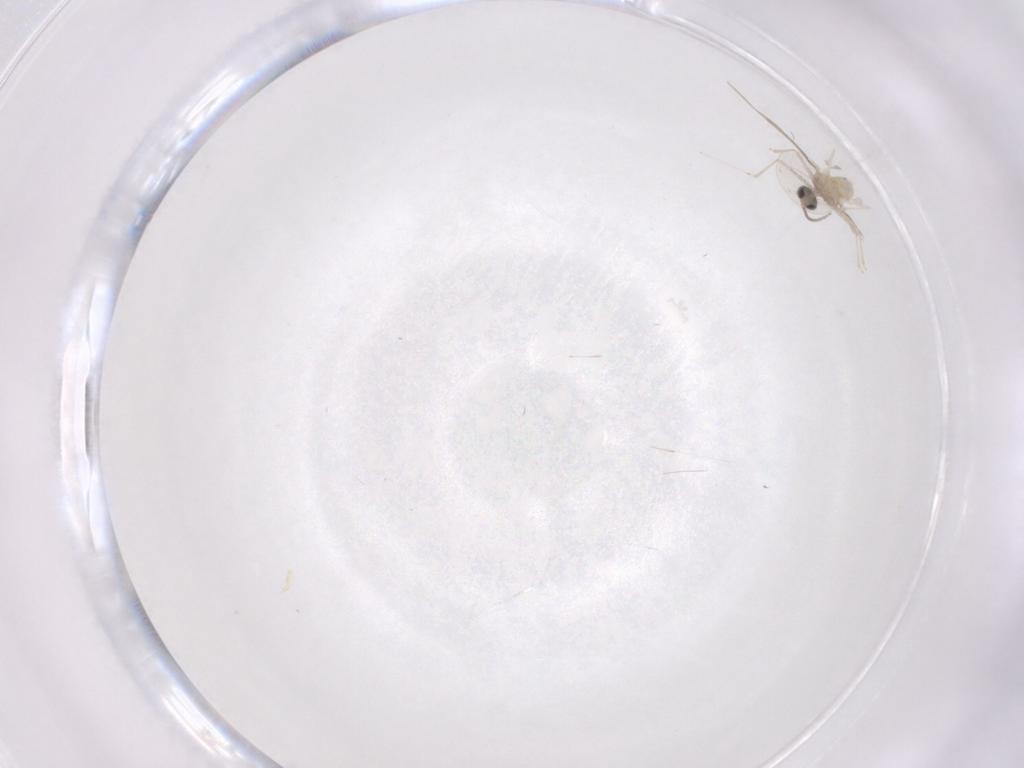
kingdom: Animalia
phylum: Arthropoda
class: Insecta
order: Diptera
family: Cecidomyiidae
